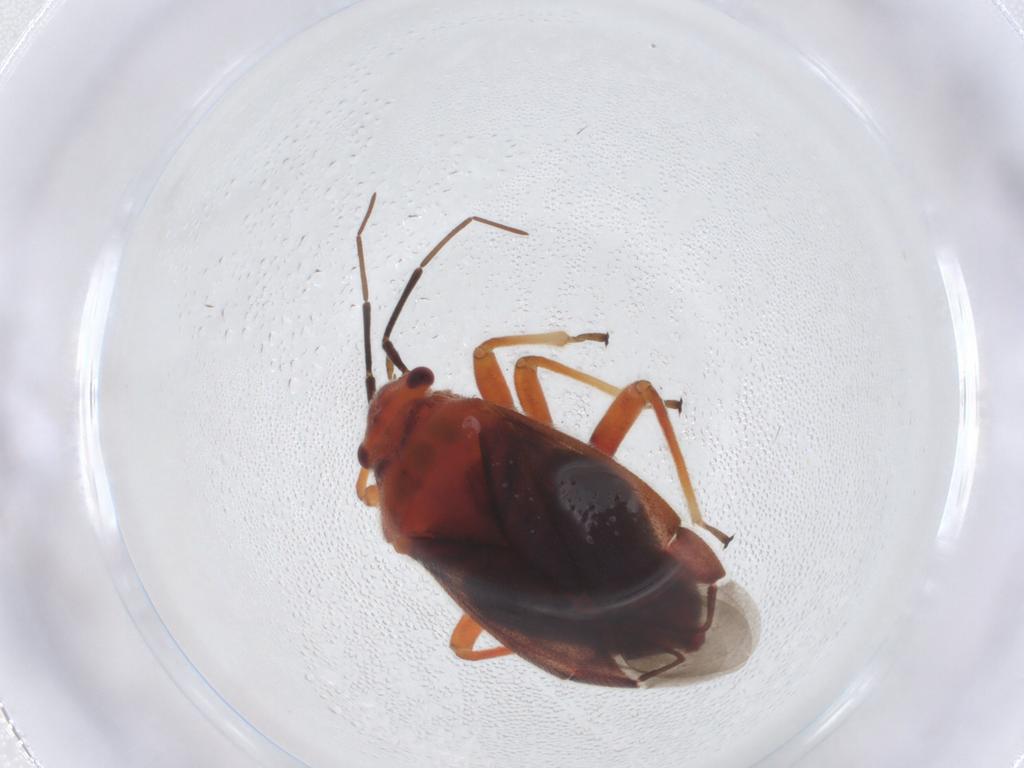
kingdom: Animalia
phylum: Arthropoda
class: Insecta
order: Hemiptera
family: Miridae
